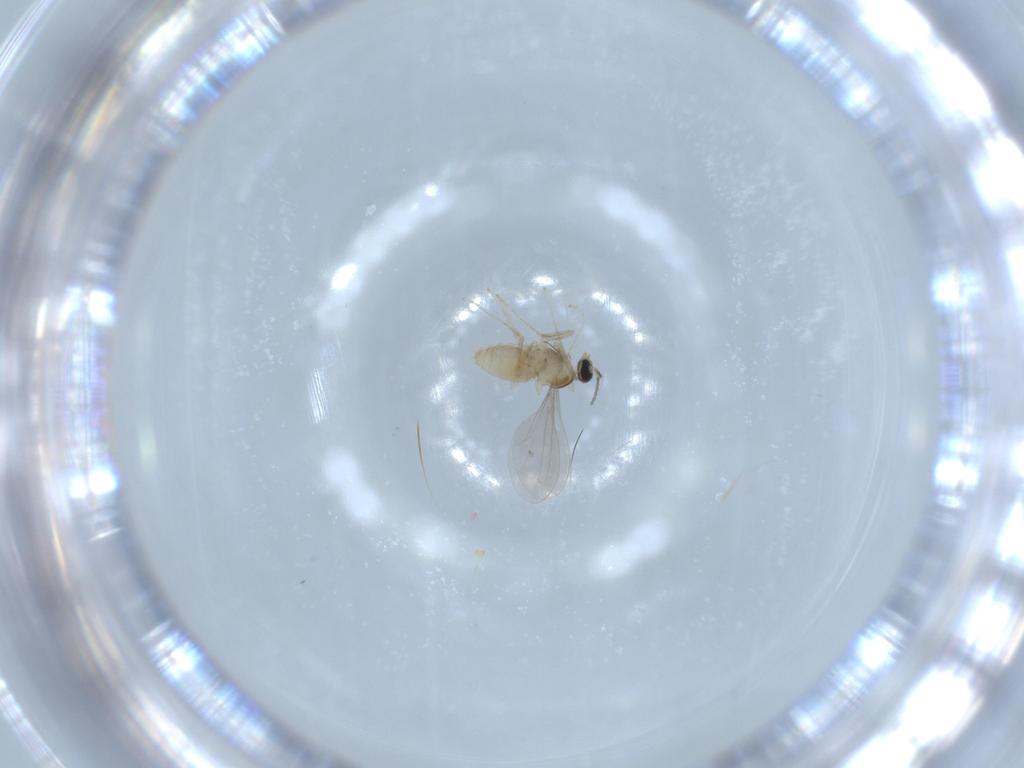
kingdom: Animalia
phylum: Arthropoda
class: Insecta
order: Diptera
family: Cecidomyiidae
